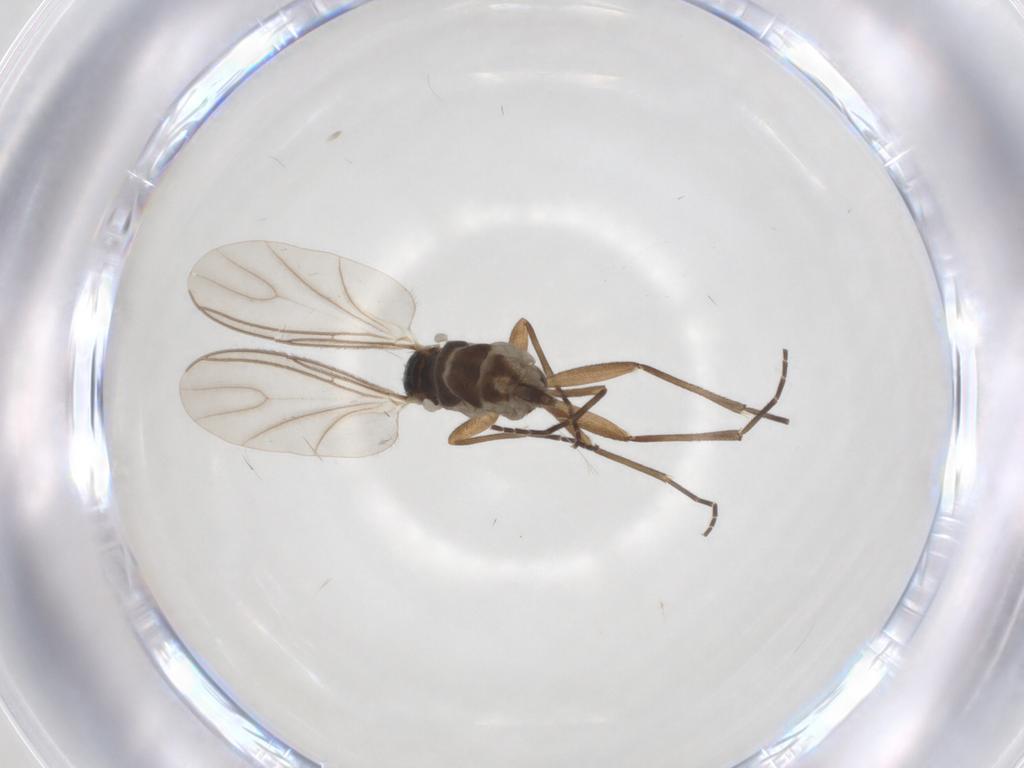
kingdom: Animalia
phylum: Arthropoda
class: Insecta
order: Diptera
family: Sciaridae
